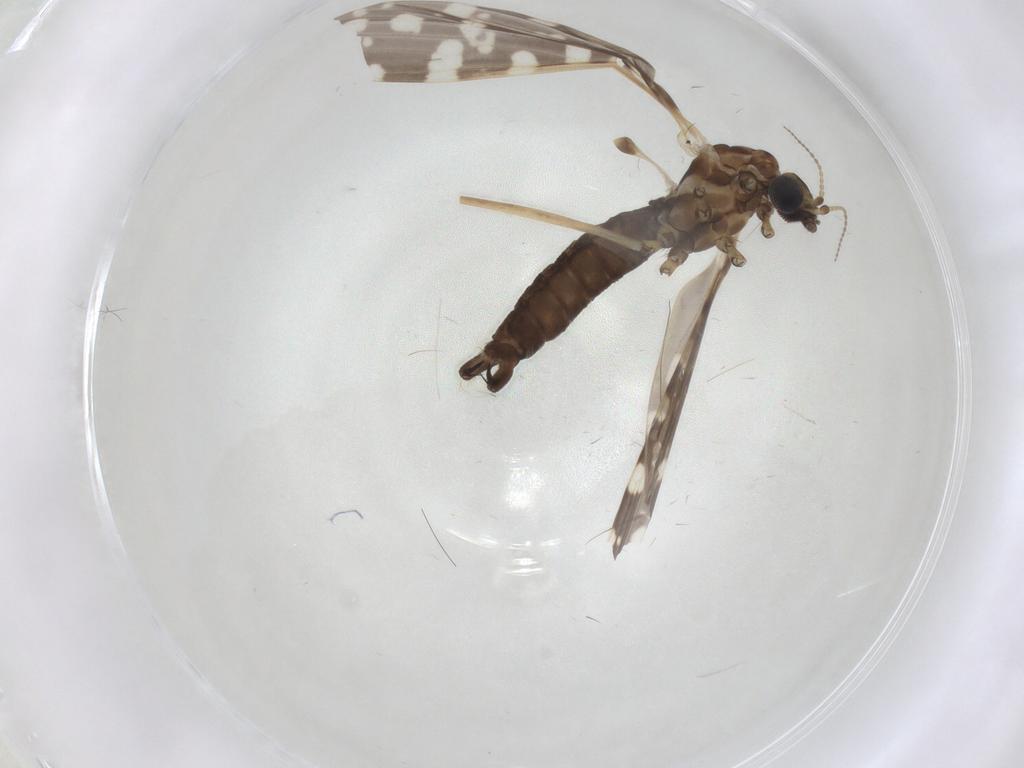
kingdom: Animalia
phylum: Arthropoda
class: Insecta
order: Diptera
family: Limoniidae
